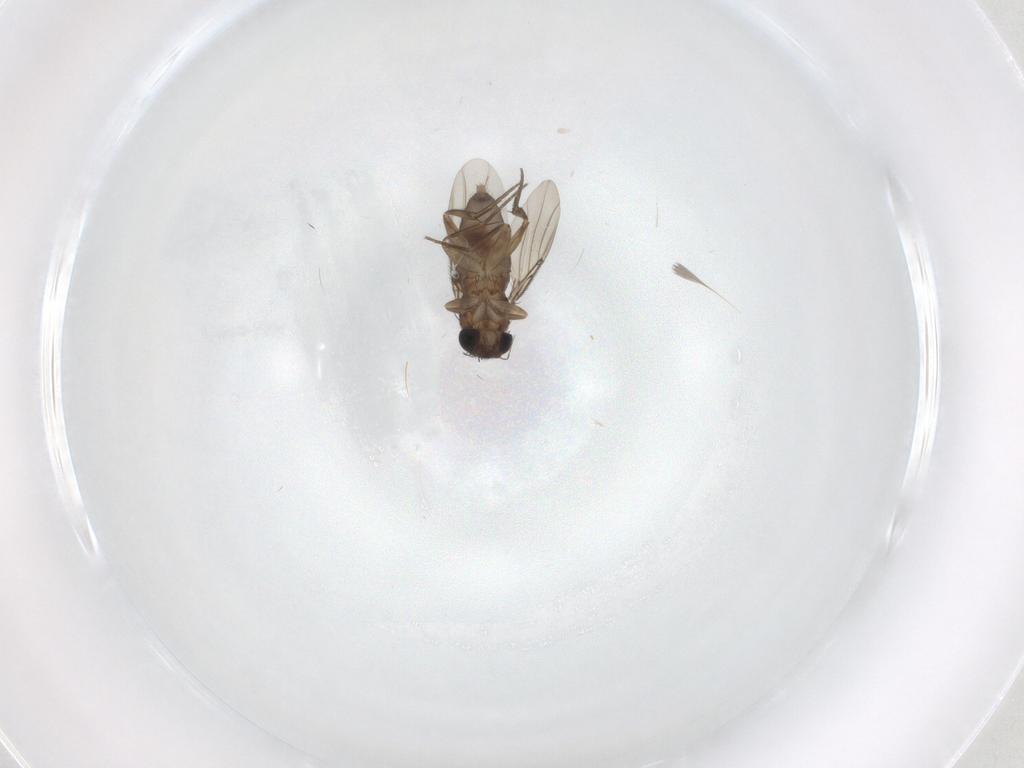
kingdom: Animalia
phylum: Arthropoda
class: Insecta
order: Diptera
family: Phoridae
